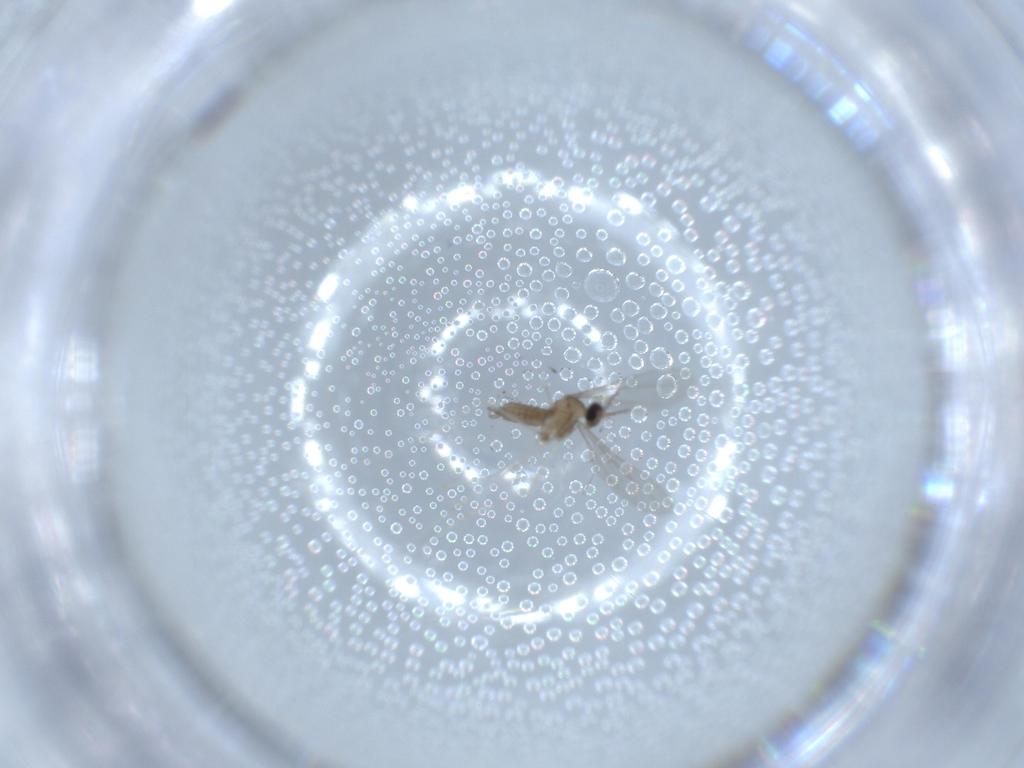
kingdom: Animalia
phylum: Arthropoda
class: Insecta
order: Diptera
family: Cecidomyiidae
